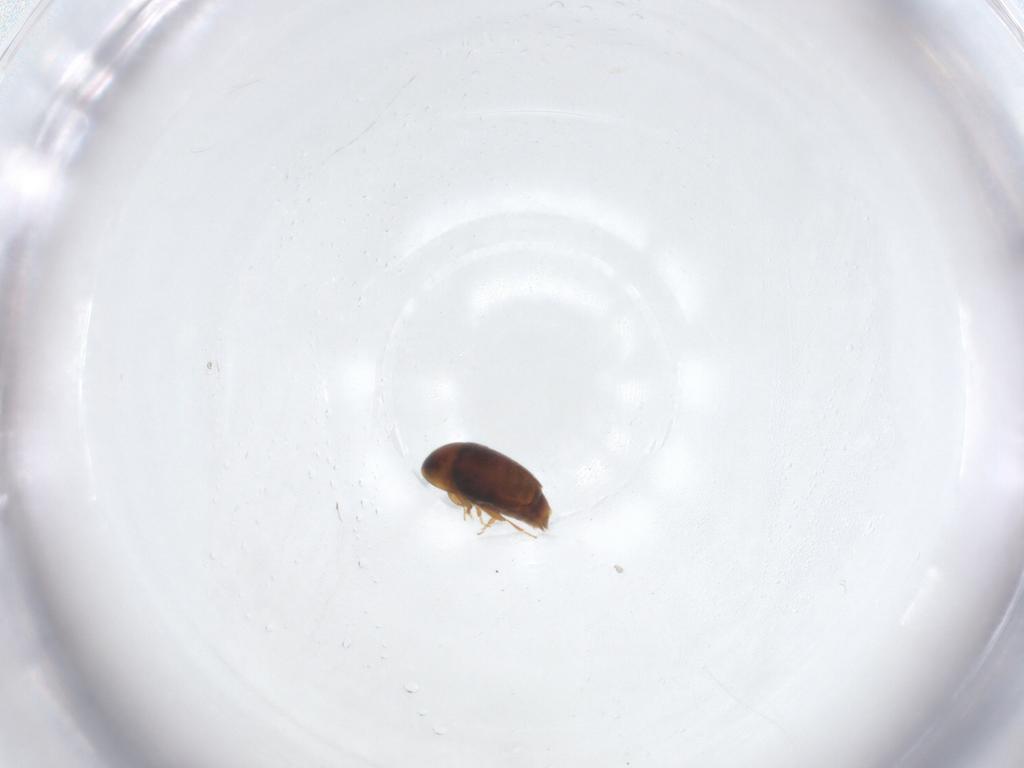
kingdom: Animalia
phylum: Arthropoda
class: Insecta
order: Coleoptera
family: Corylophidae
